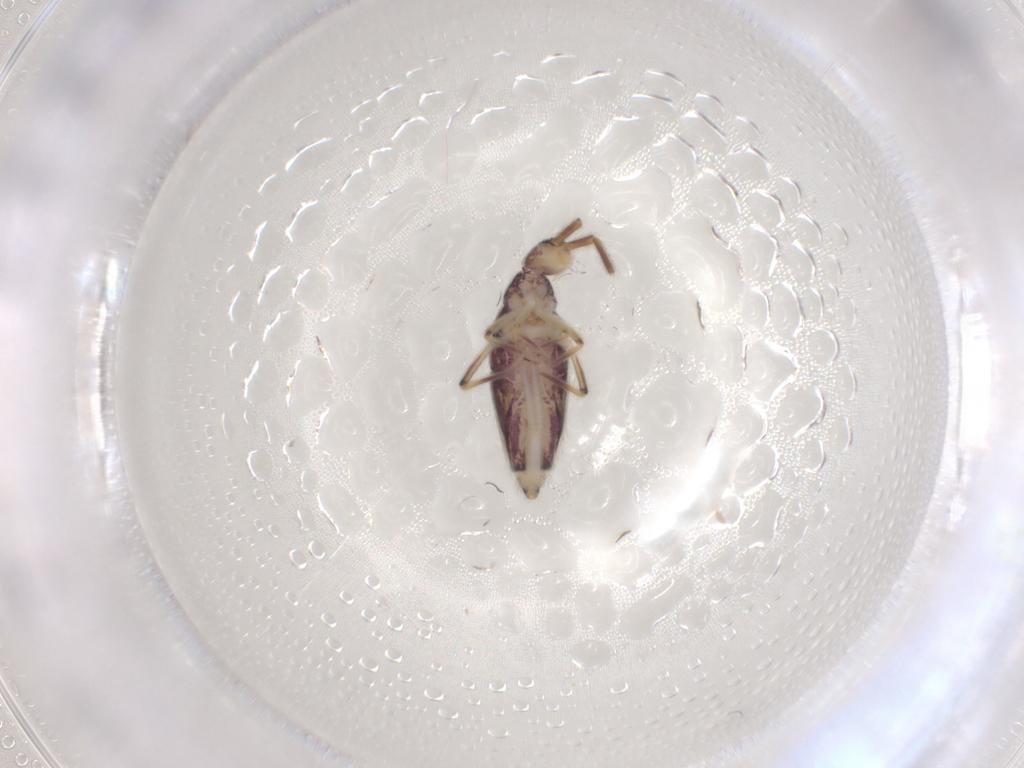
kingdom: Animalia
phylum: Arthropoda
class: Collembola
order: Entomobryomorpha
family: Entomobryidae
